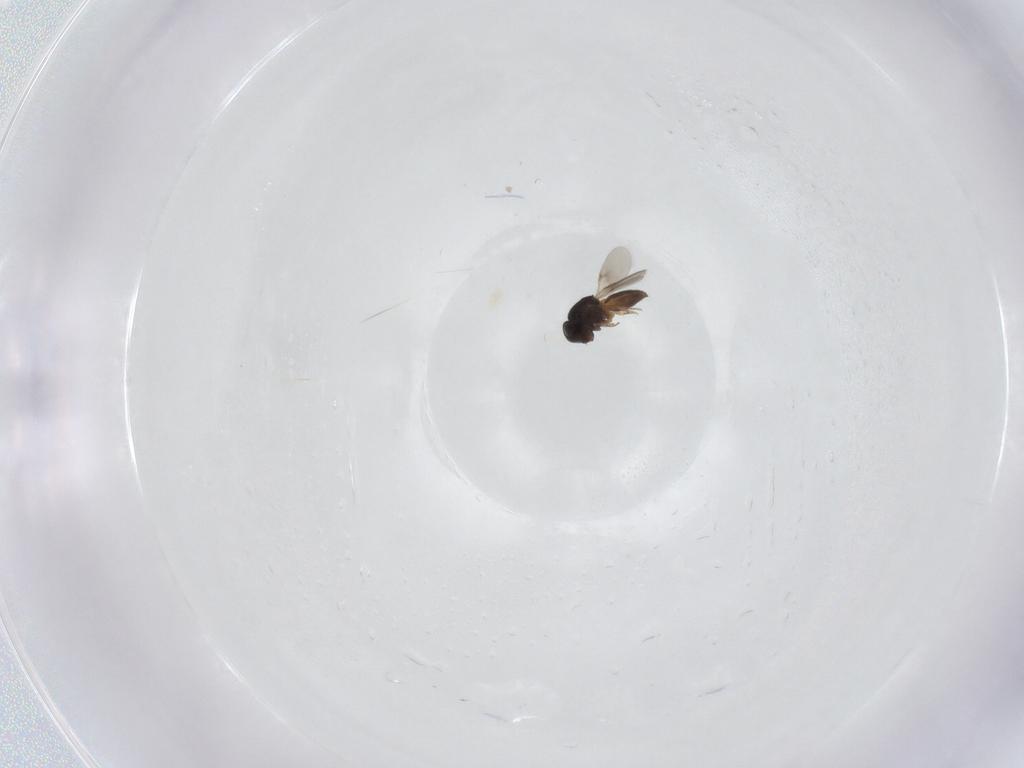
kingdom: Animalia
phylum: Arthropoda
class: Insecta
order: Hymenoptera
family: Scelionidae
